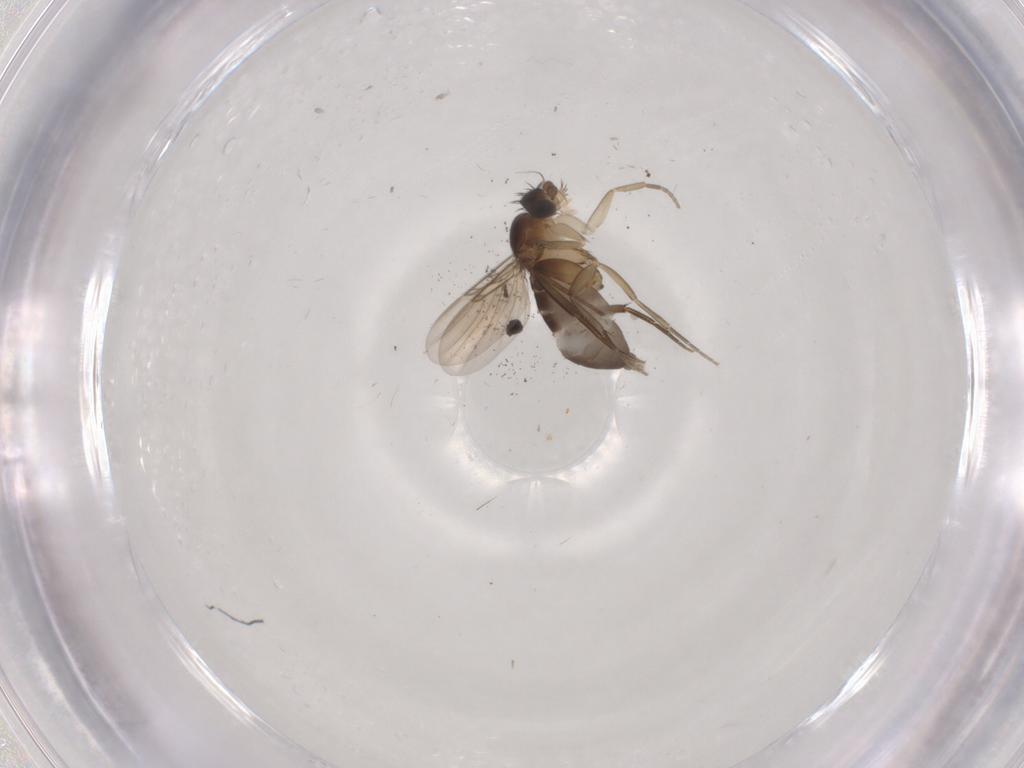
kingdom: Animalia
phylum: Arthropoda
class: Insecta
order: Diptera
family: Phoridae
